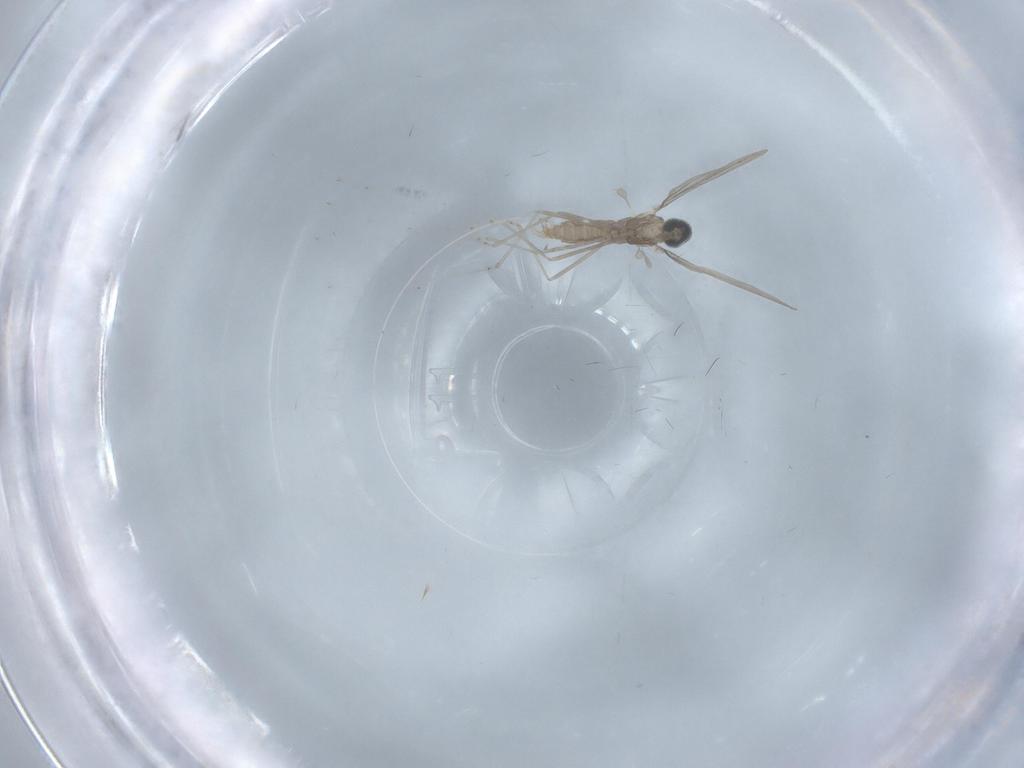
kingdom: Animalia
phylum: Arthropoda
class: Insecta
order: Diptera
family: Cecidomyiidae
